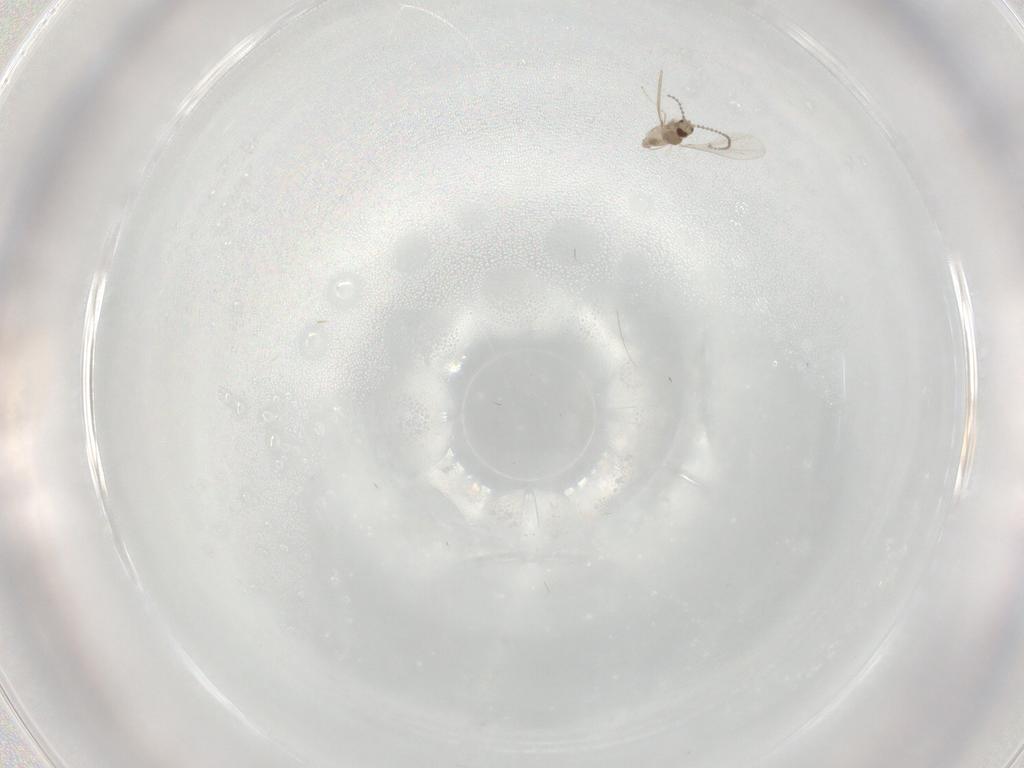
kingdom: Animalia
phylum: Arthropoda
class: Insecta
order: Diptera
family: Cecidomyiidae
